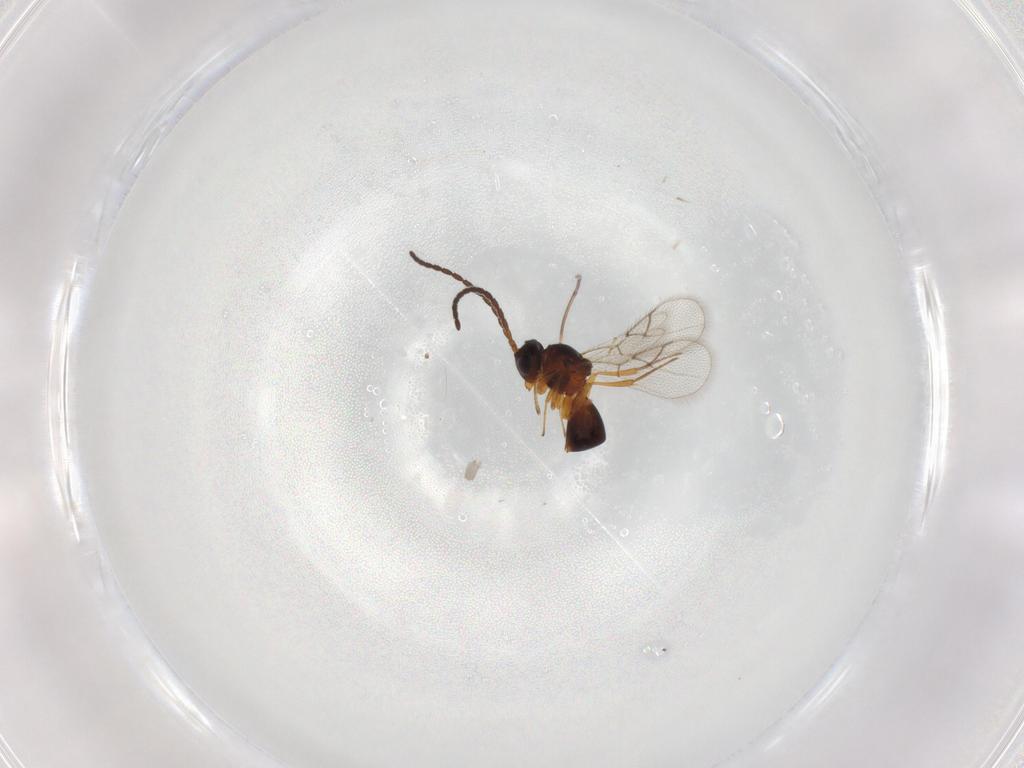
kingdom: Animalia
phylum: Arthropoda
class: Insecta
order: Hymenoptera
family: Figitidae
